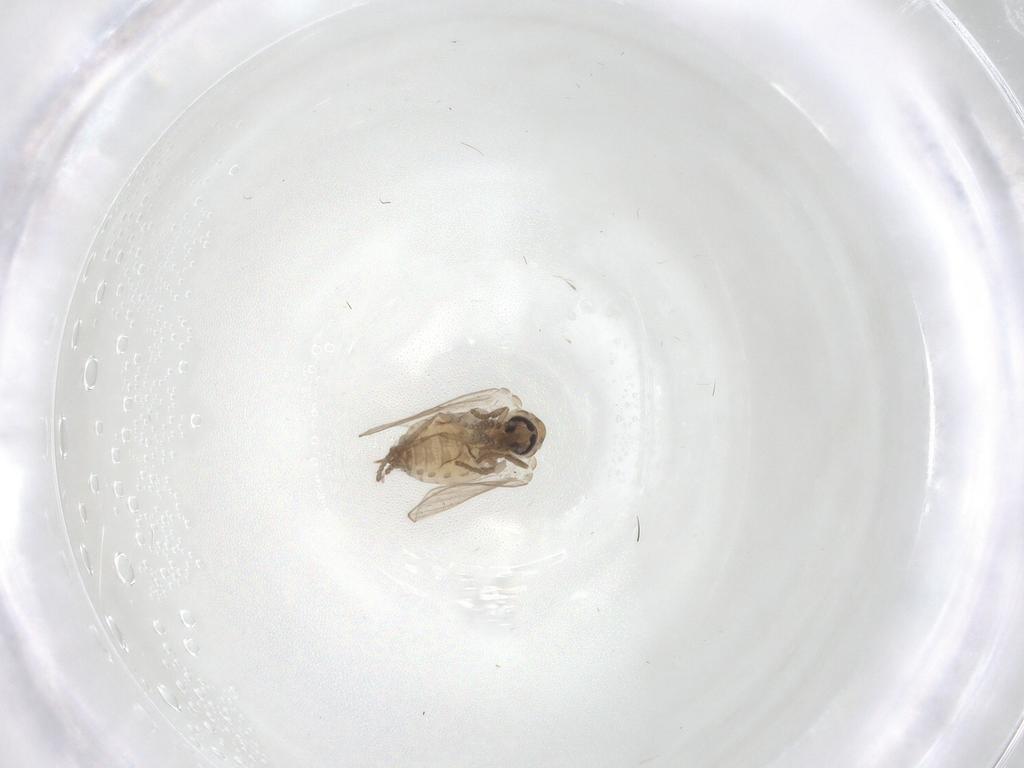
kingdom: Animalia
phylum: Arthropoda
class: Insecta
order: Diptera
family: Psychodidae
